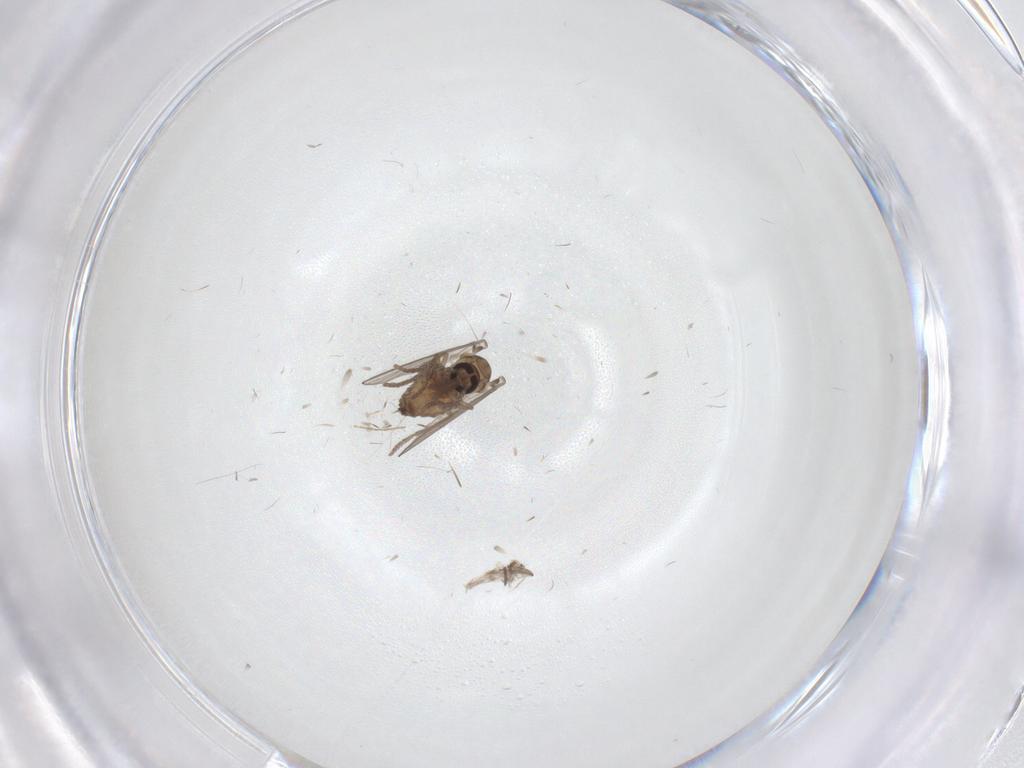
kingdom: Animalia
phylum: Arthropoda
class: Insecta
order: Diptera
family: Psychodidae
